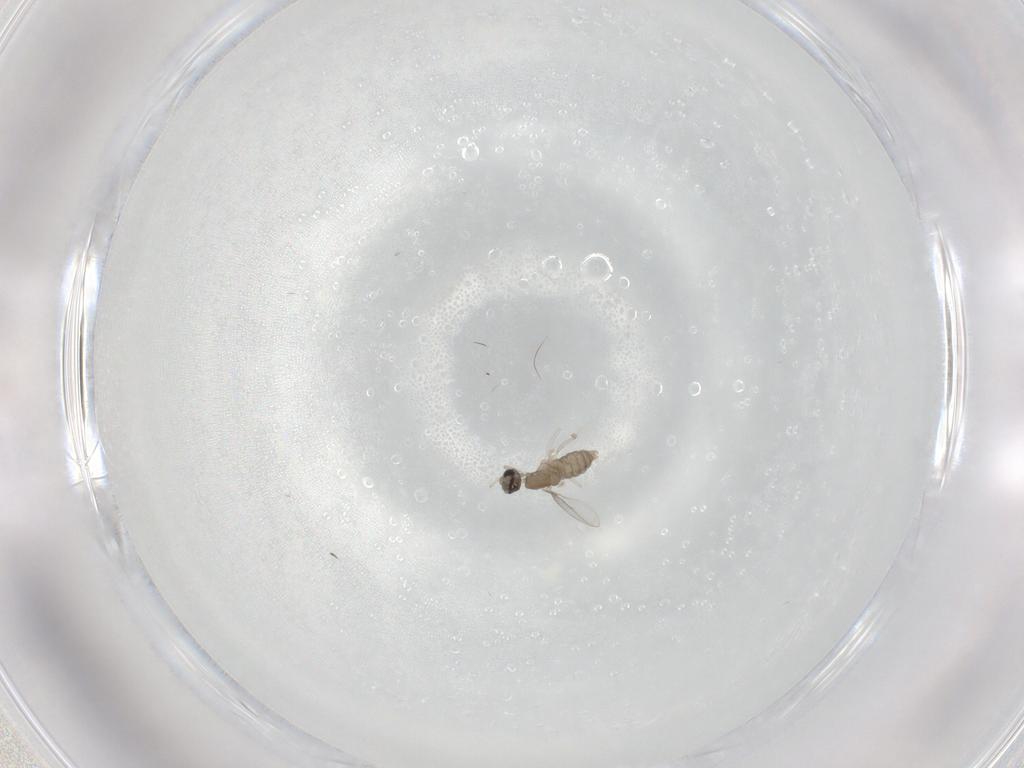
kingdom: Animalia
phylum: Arthropoda
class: Insecta
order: Diptera
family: Cecidomyiidae
